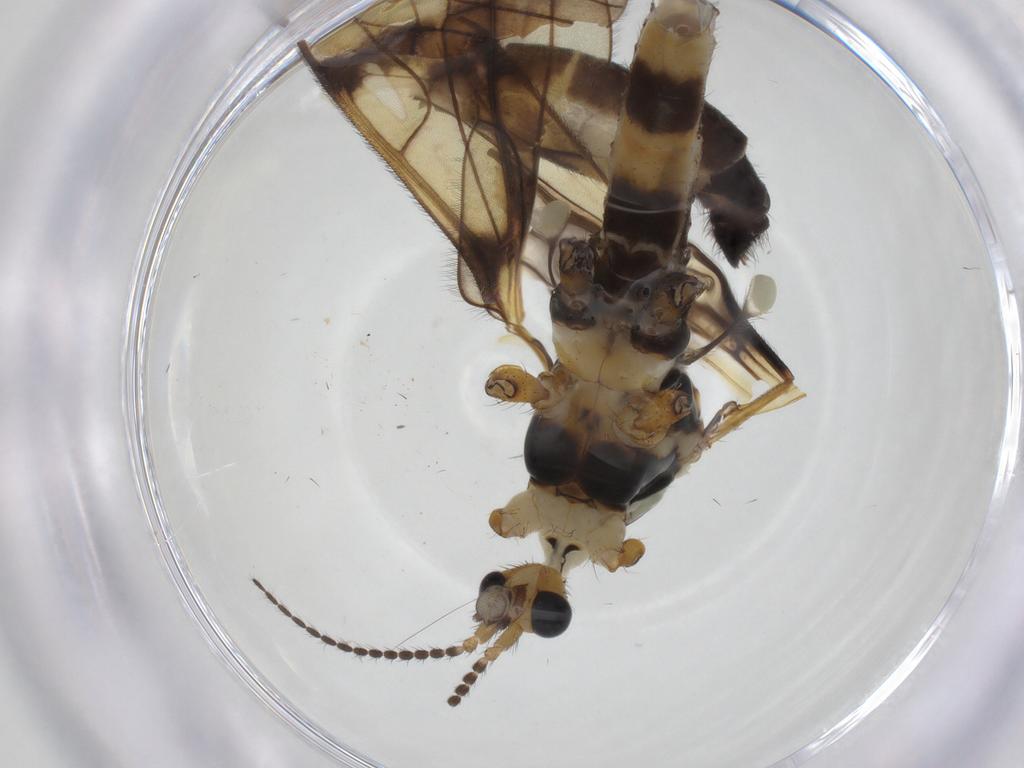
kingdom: Animalia
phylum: Arthropoda
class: Insecta
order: Diptera
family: Limoniidae
